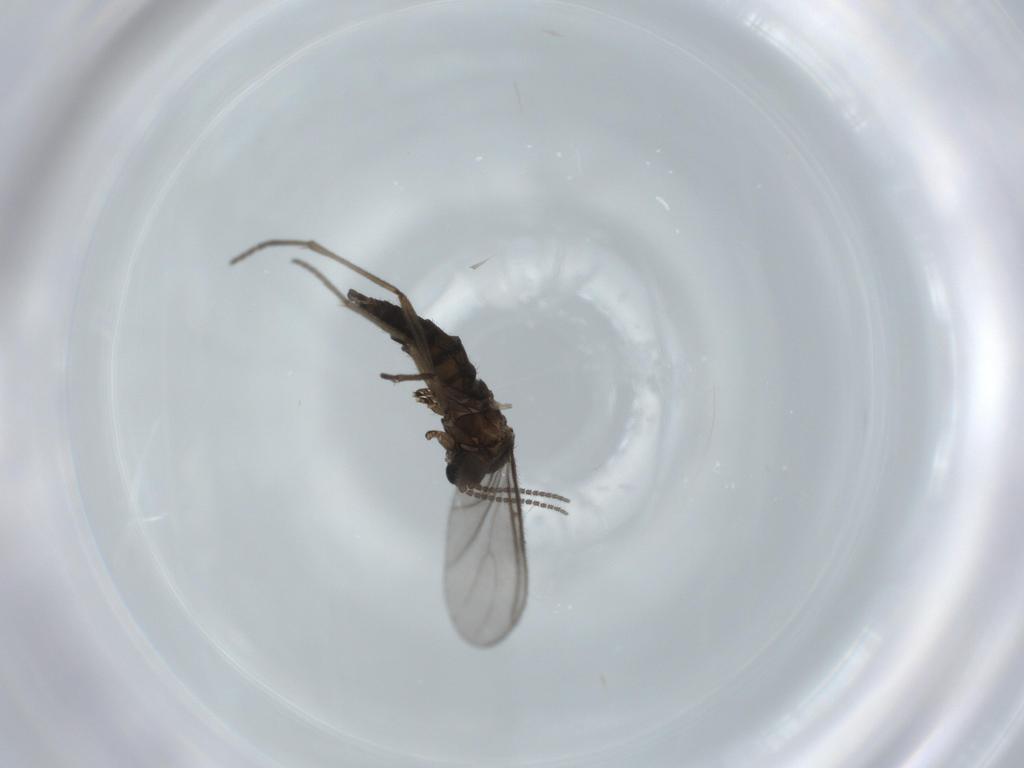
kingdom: Animalia
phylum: Arthropoda
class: Insecta
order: Diptera
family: Sciaridae
